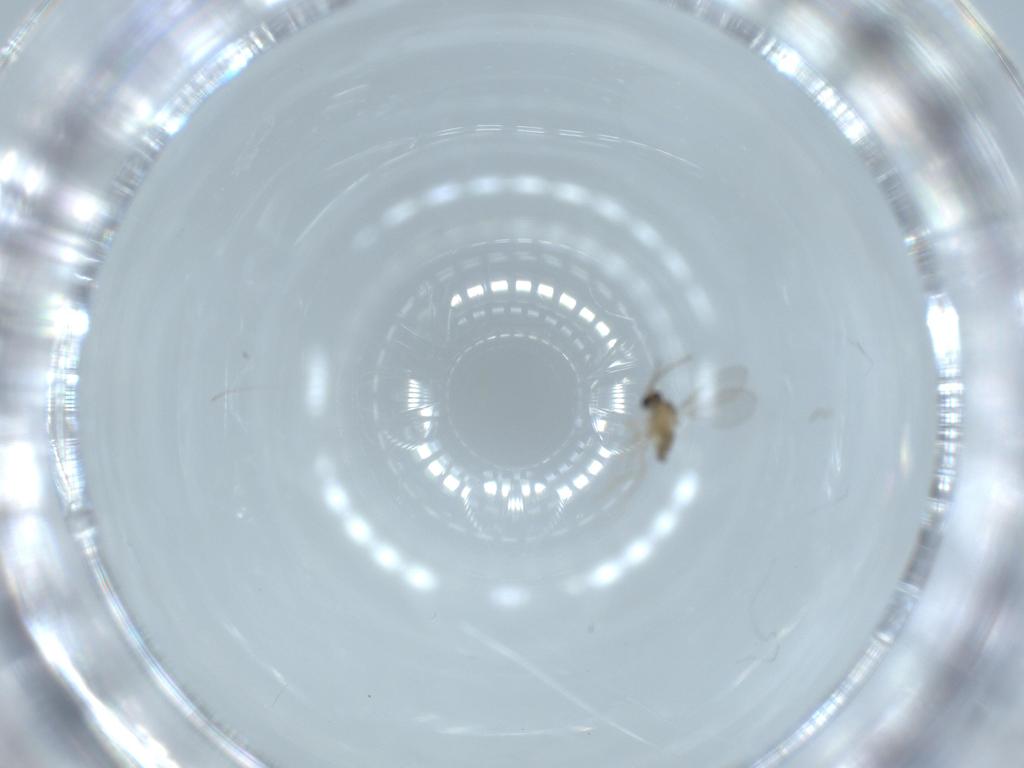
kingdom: Animalia
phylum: Arthropoda
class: Insecta
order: Diptera
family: Cecidomyiidae
